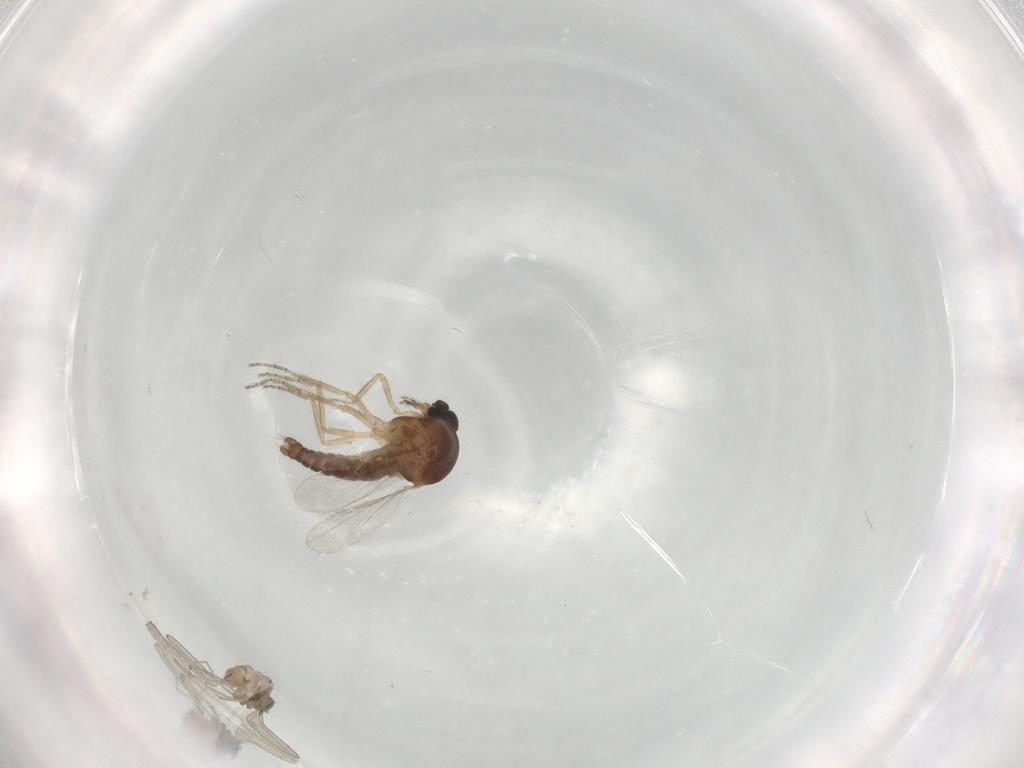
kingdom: Animalia
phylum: Arthropoda
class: Insecta
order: Diptera
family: Ceratopogonidae
